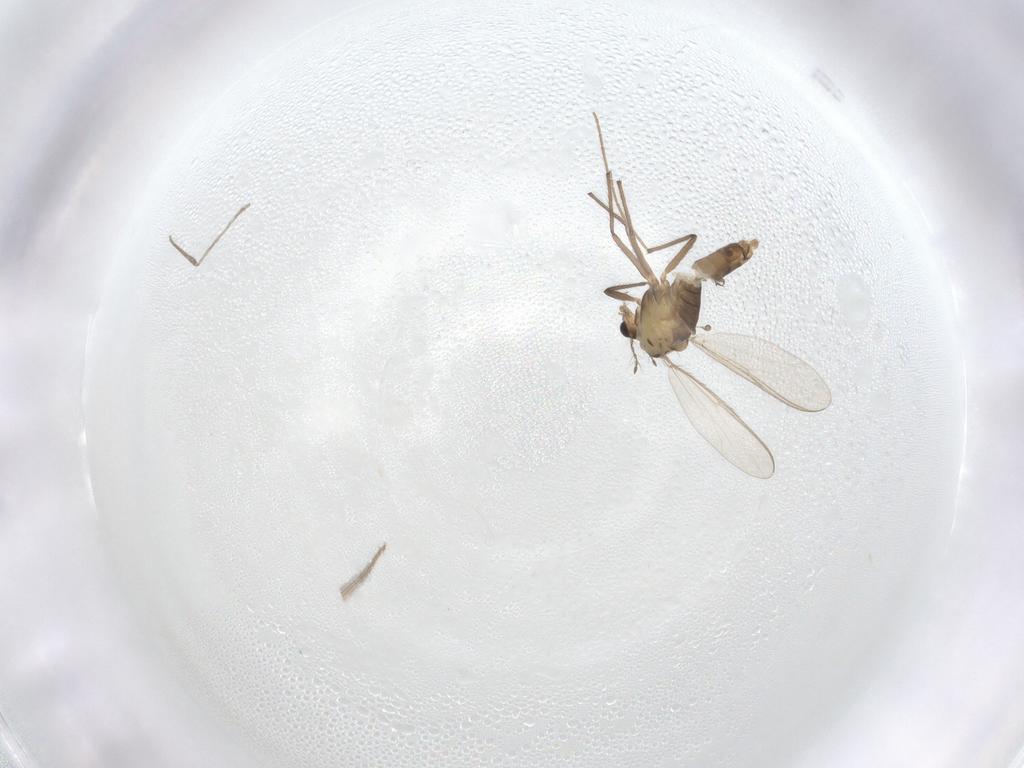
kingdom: Animalia
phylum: Arthropoda
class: Insecta
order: Diptera
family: Chironomidae
